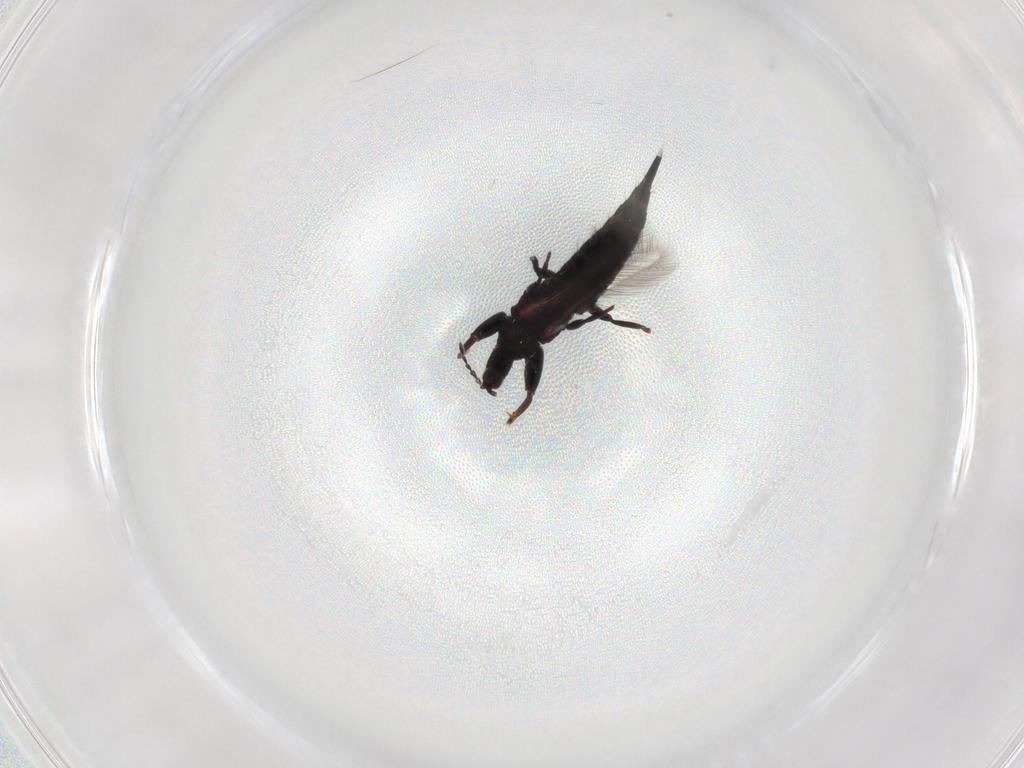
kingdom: Animalia
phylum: Arthropoda
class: Insecta
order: Thysanoptera
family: Phlaeothripidae
